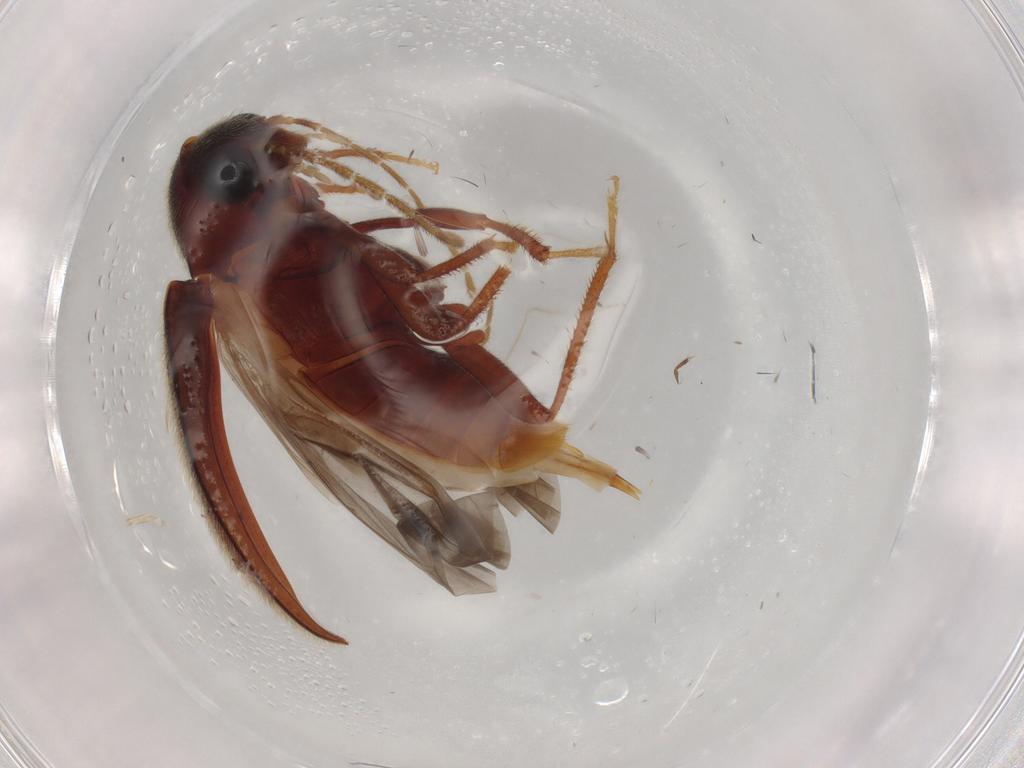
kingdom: Animalia
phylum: Arthropoda
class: Insecta
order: Coleoptera
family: Ptilodactylidae
